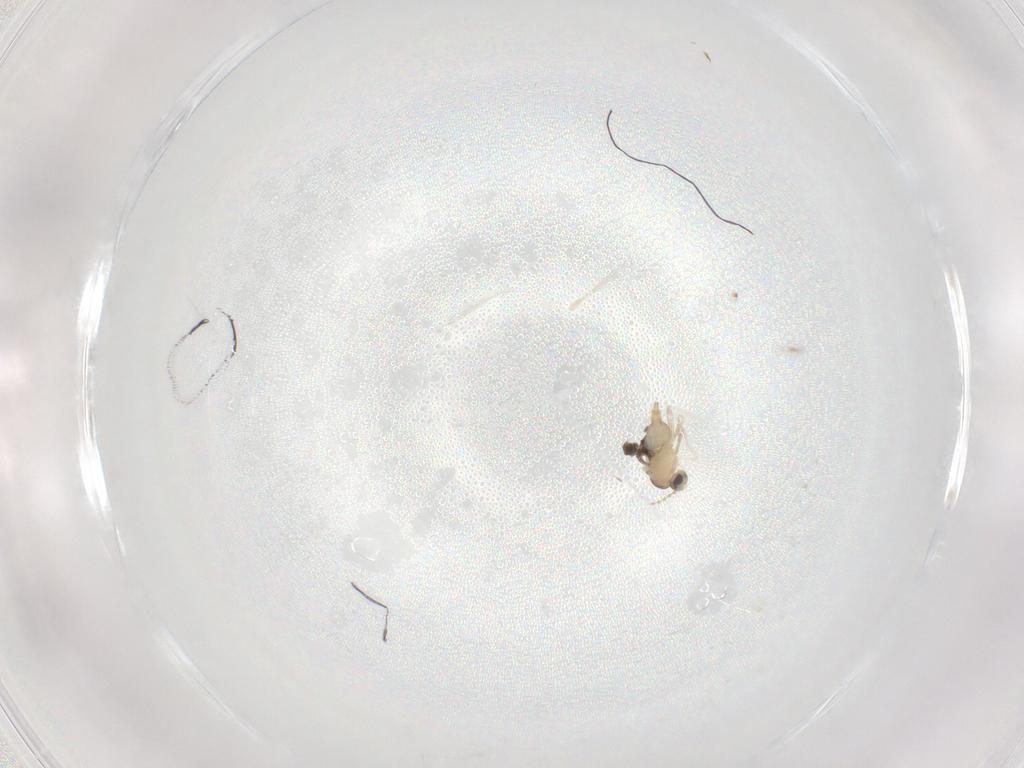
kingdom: Animalia
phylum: Arthropoda
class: Insecta
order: Diptera
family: Cecidomyiidae
